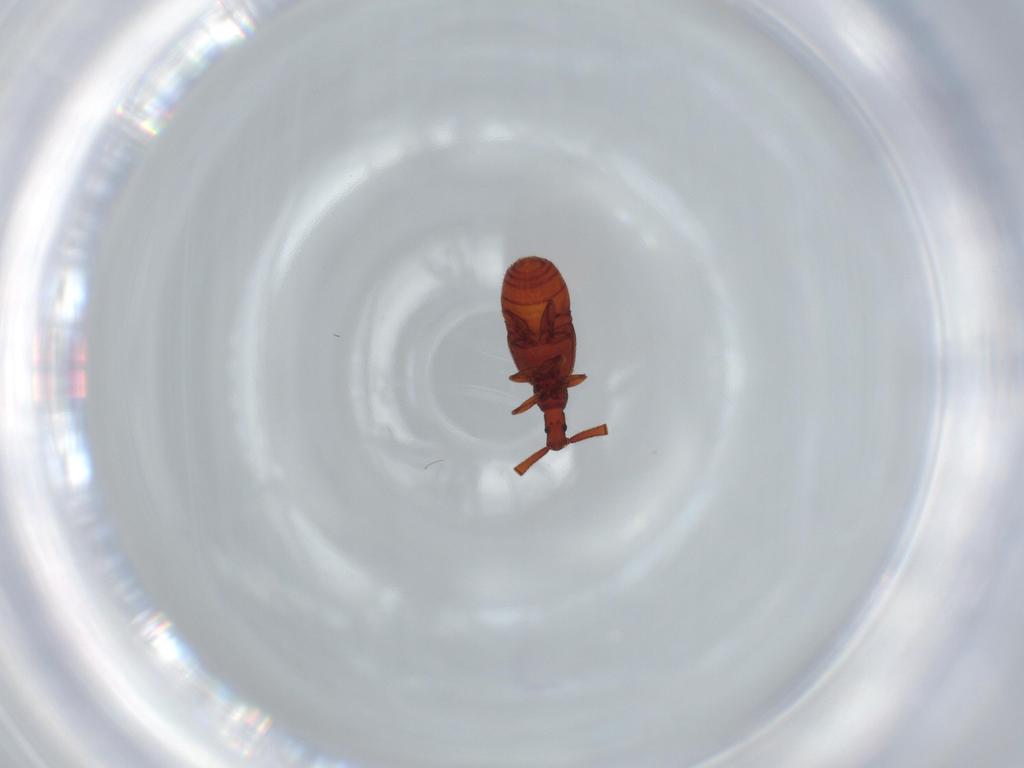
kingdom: Animalia
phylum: Arthropoda
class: Insecta
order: Coleoptera
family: Staphylinidae
